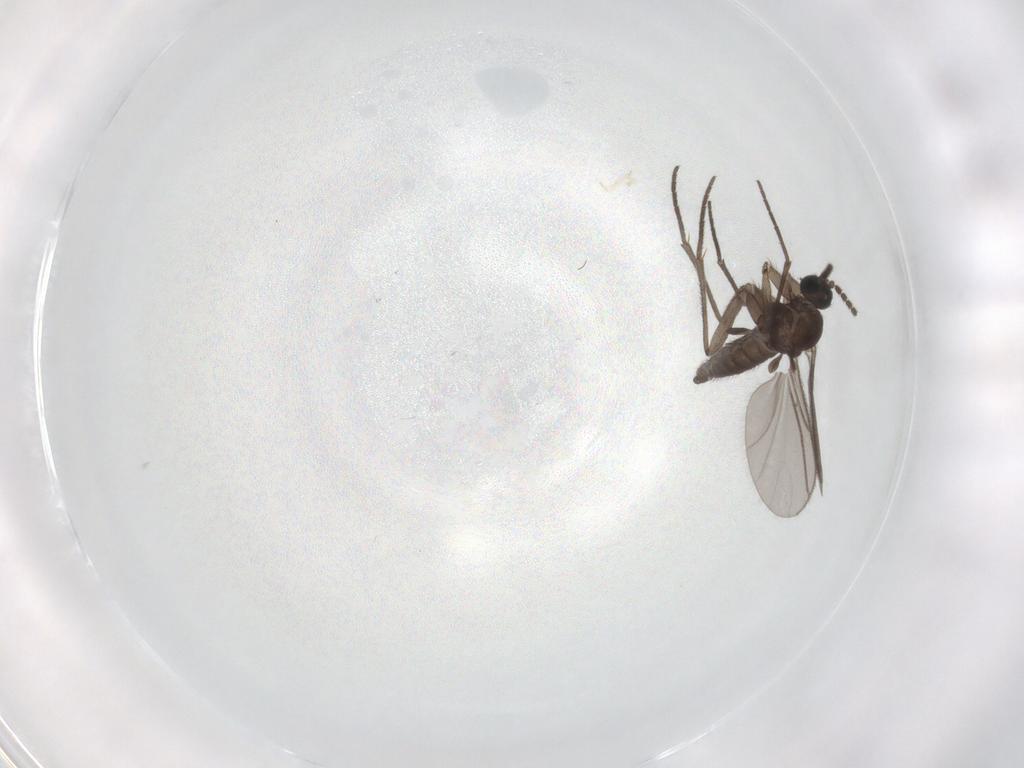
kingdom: Animalia
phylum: Arthropoda
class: Insecta
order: Diptera
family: Sciaridae
